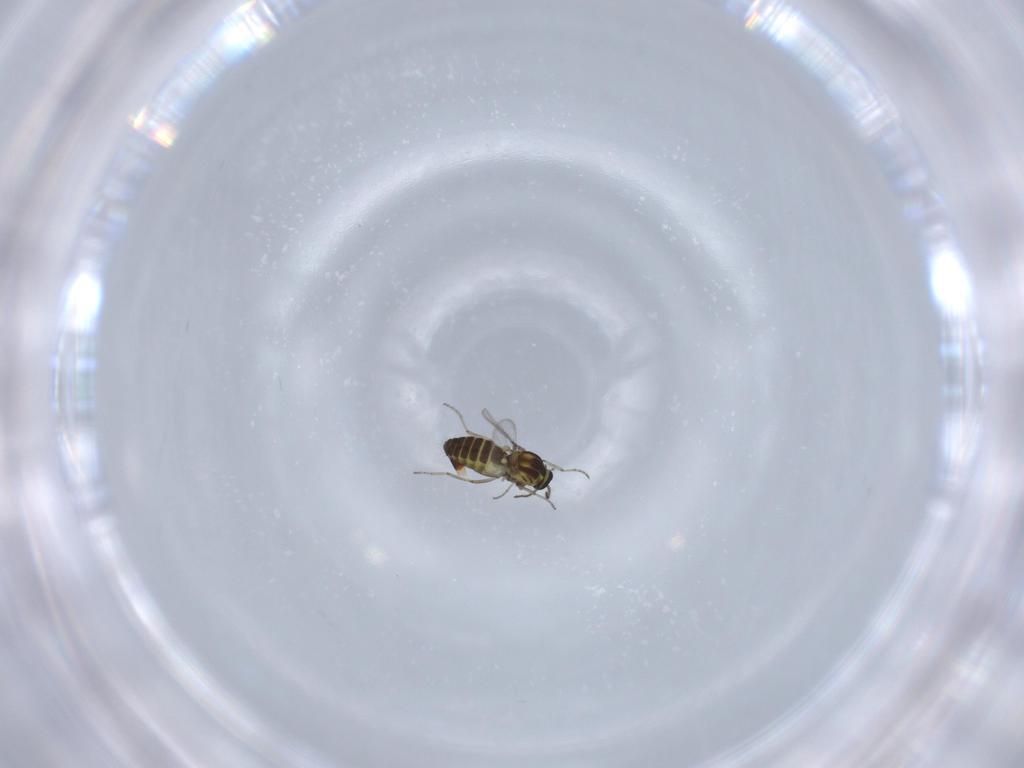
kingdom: Animalia
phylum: Arthropoda
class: Insecta
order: Diptera
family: Ceratopogonidae
